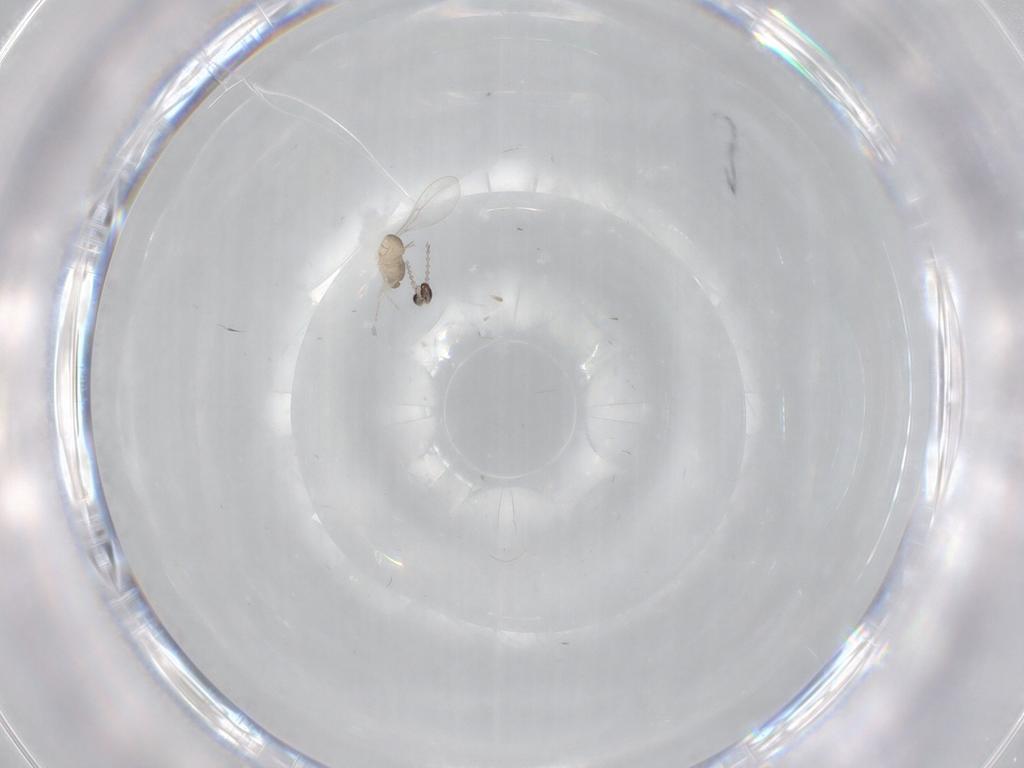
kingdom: Animalia
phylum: Arthropoda
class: Insecta
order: Diptera
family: Cecidomyiidae
